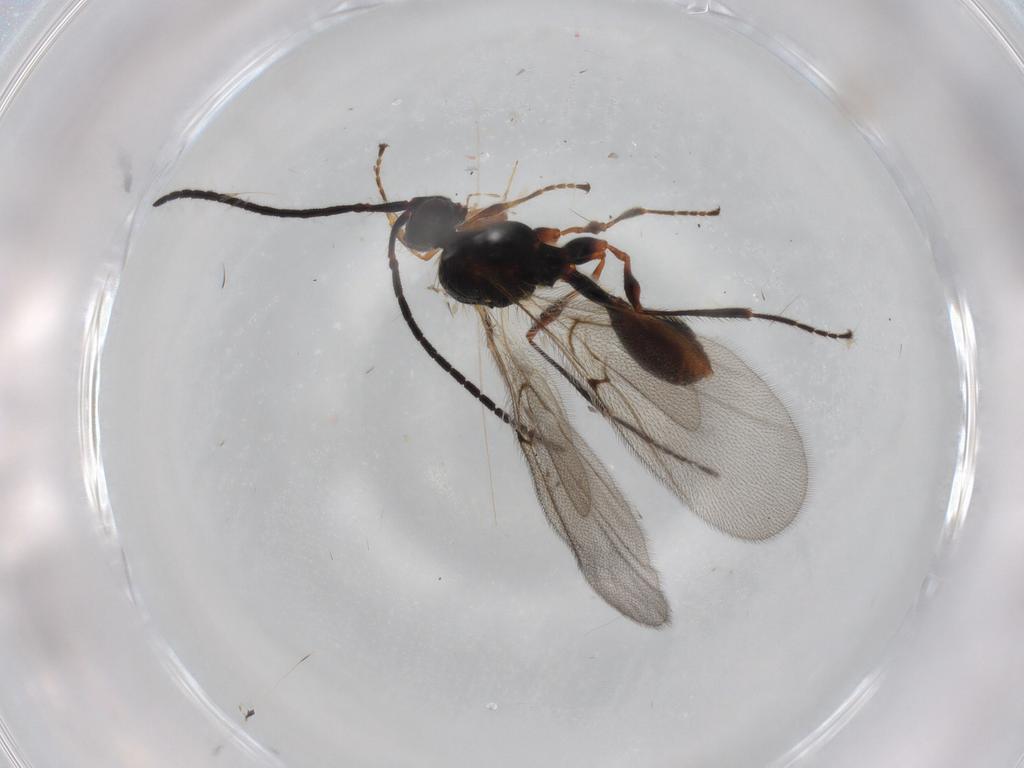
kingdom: Animalia
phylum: Arthropoda
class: Insecta
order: Hymenoptera
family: Diapriidae
